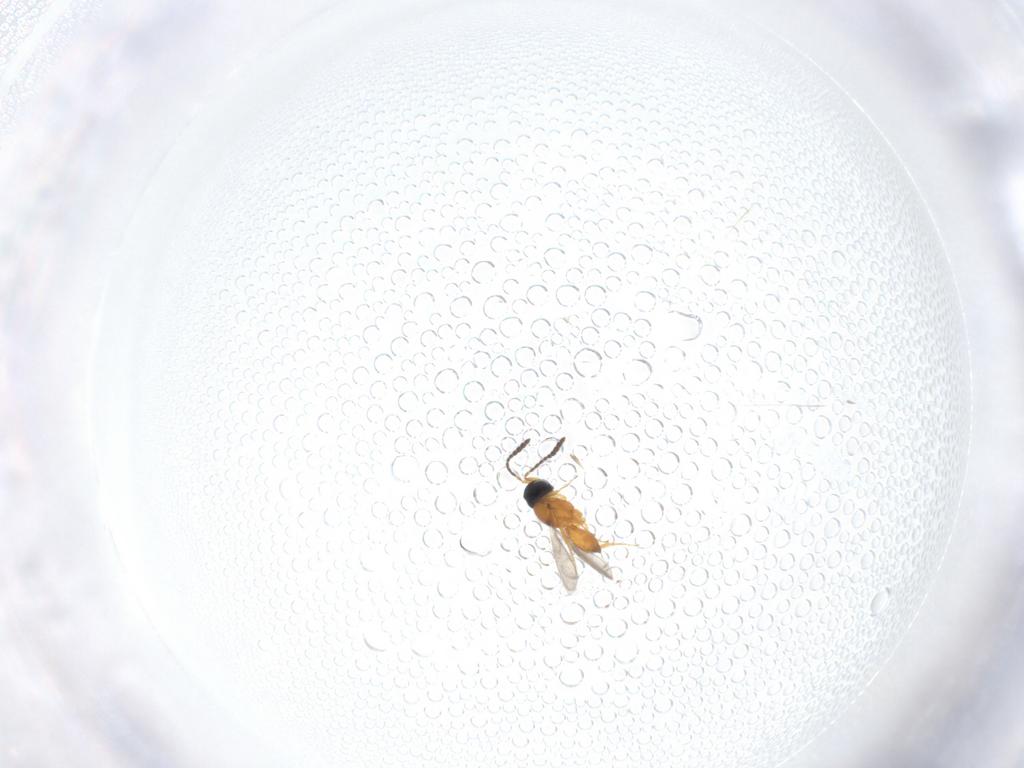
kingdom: Animalia
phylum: Arthropoda
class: Insecta
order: Hymenoptera
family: Scelionidae
